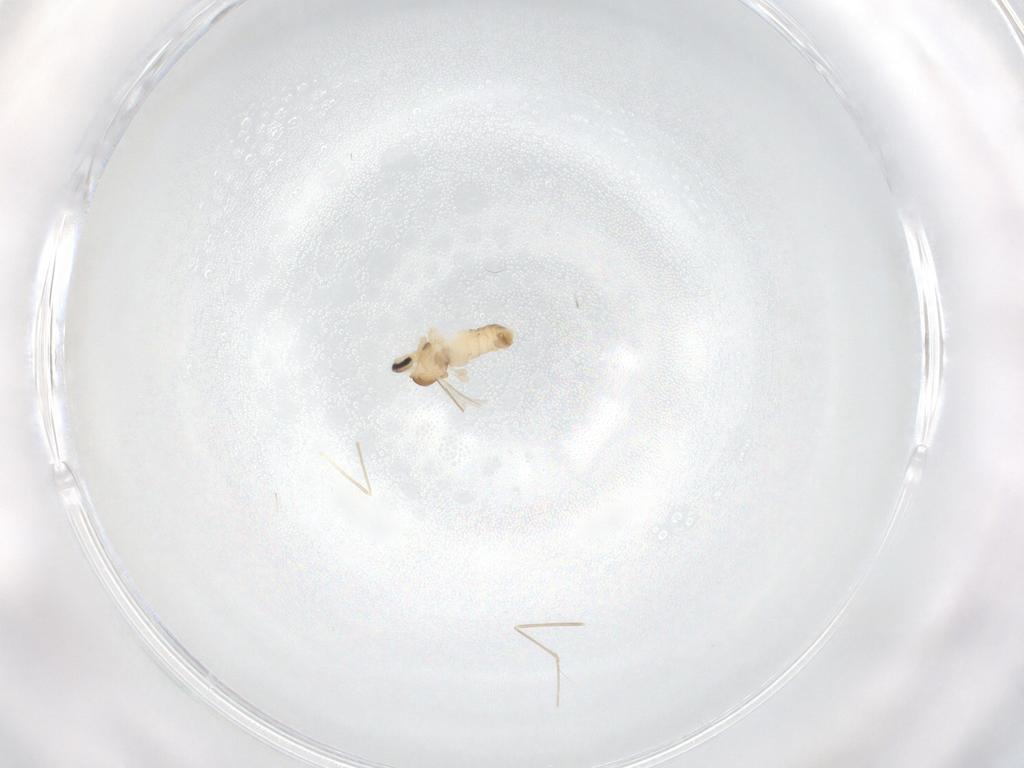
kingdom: Animalia
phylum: Arthropoda
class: Insecta
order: Diptera
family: Cecidomyiidae
